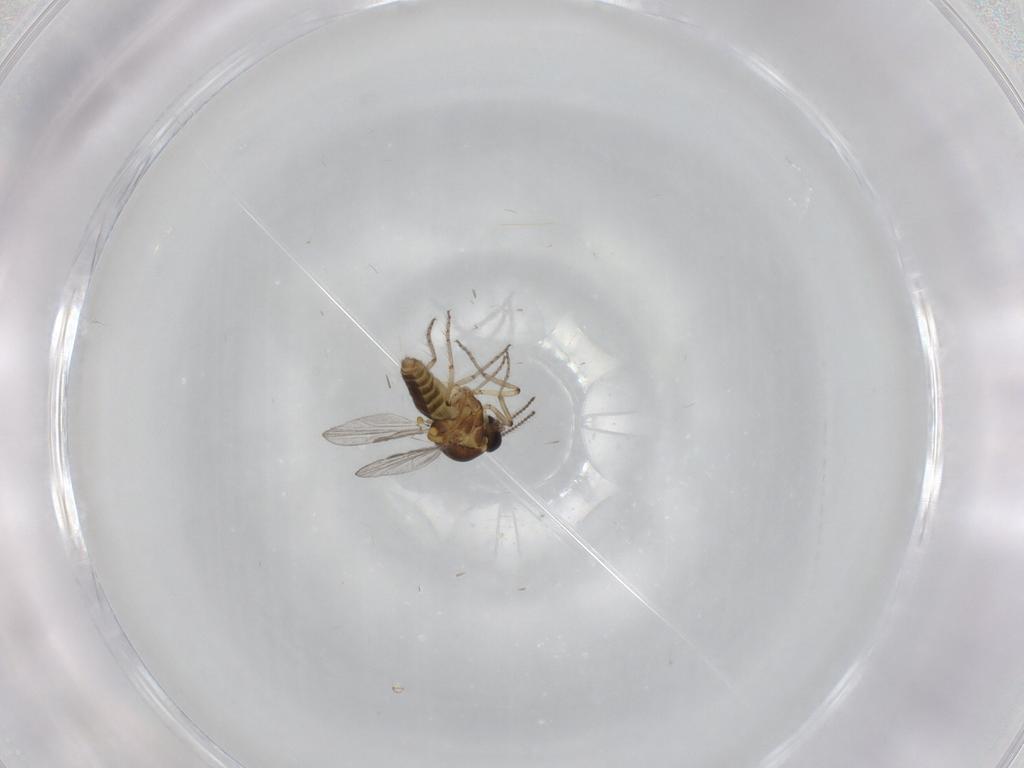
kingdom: Animalia
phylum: Arthropoda
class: Insecta
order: Diptera
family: Ceratopogonidae
